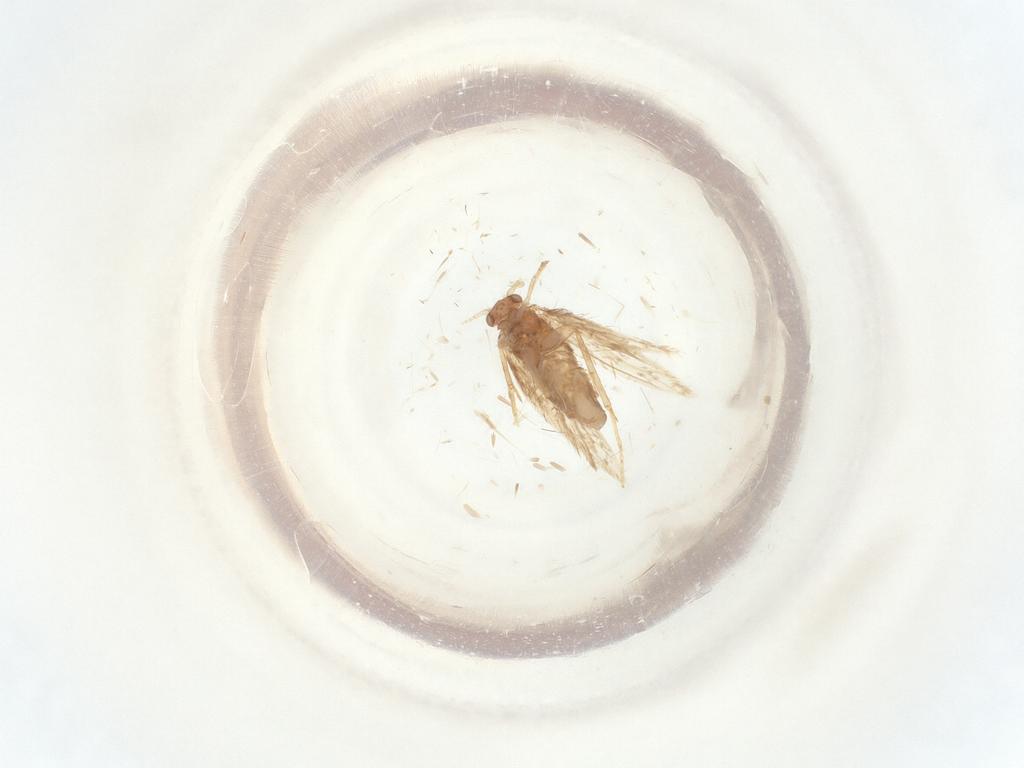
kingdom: Animalia
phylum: Arthropoda
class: Insecta
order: Lepidoptera
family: Nepticulidae
